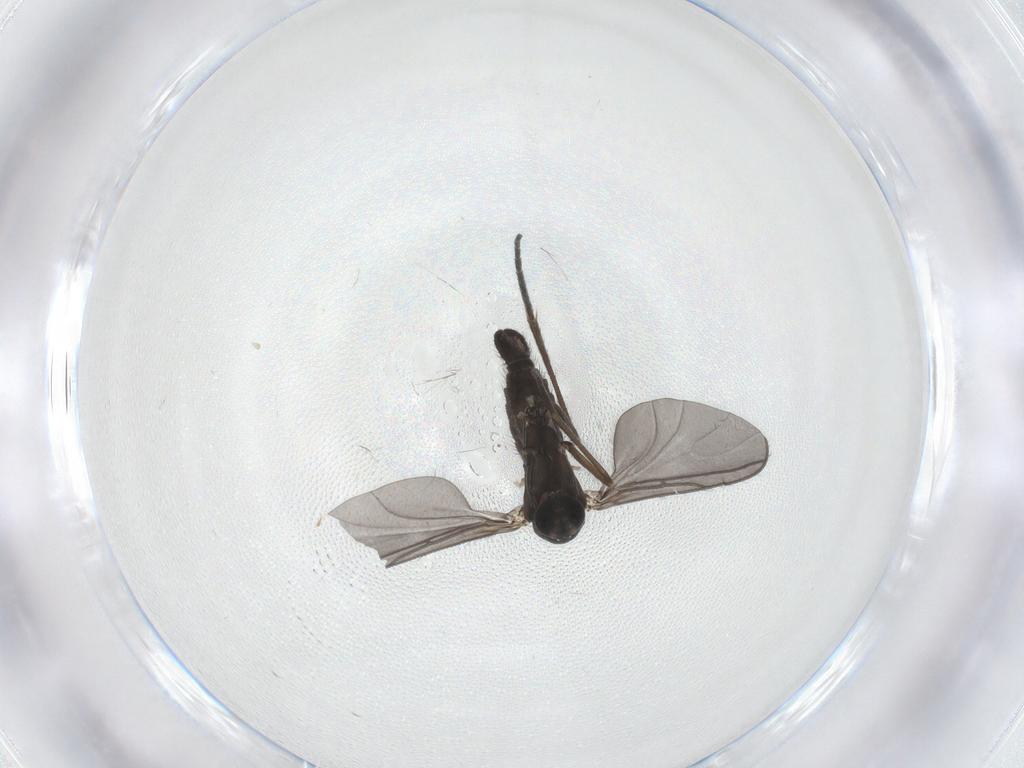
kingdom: Animalia
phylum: Arthropoda
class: Insecta
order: Diptera
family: Sciaridae
